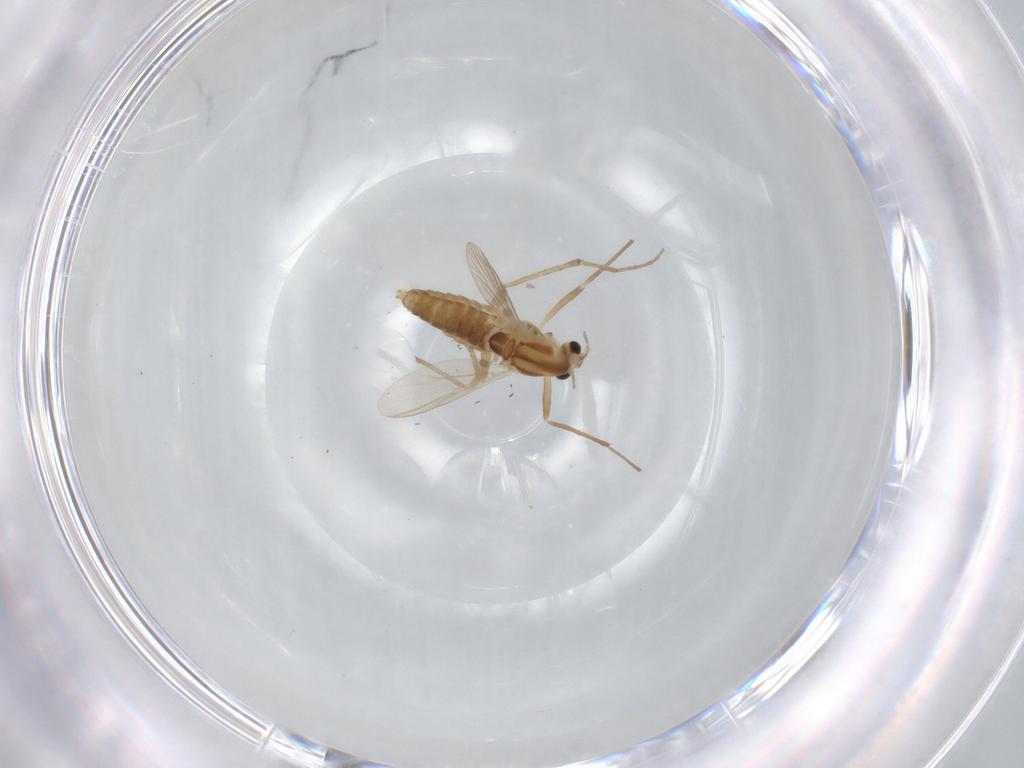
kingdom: Animalia
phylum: Arthropoda
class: Insecta
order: Diptera
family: Chironomidae
